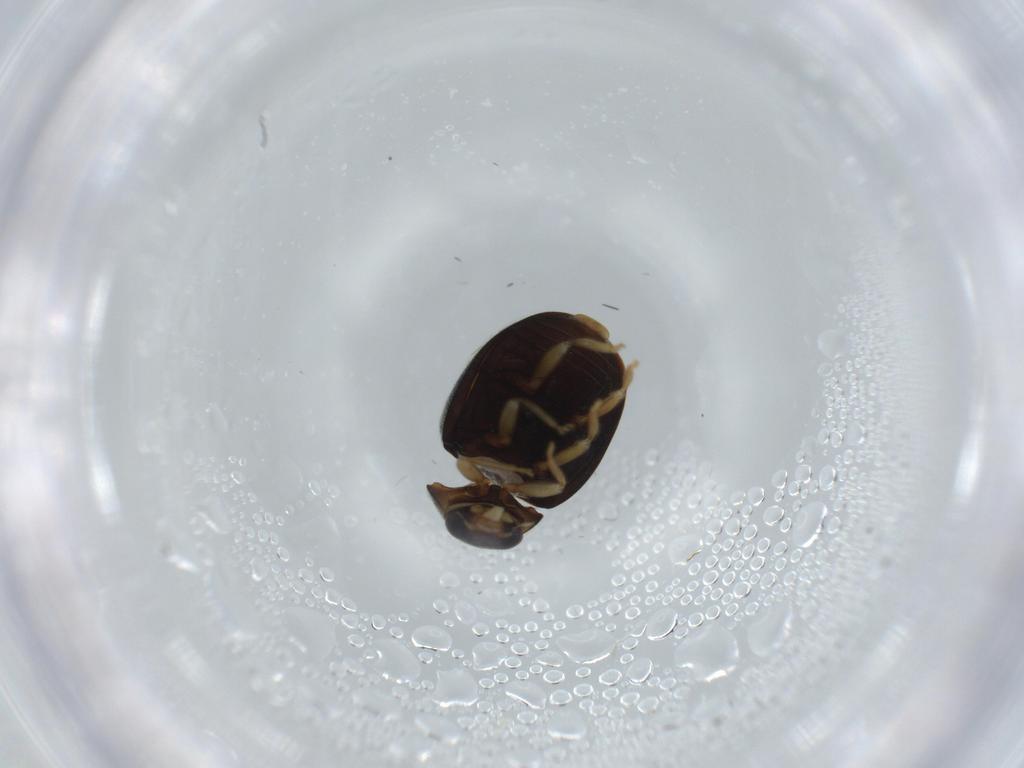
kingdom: Animalia
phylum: Arthropoda
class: Insecta
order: Coleoptera
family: Coccinellidae
